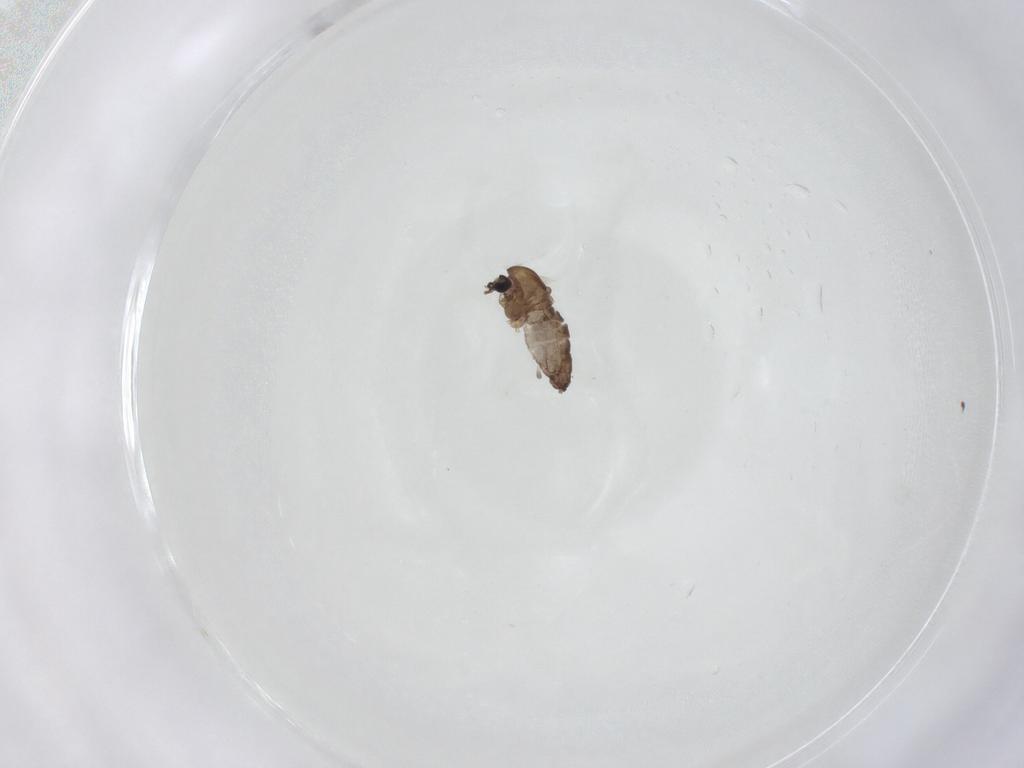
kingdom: Animalia
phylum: Arthropoda
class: Insecta
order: Diptera
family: Chironomidae
